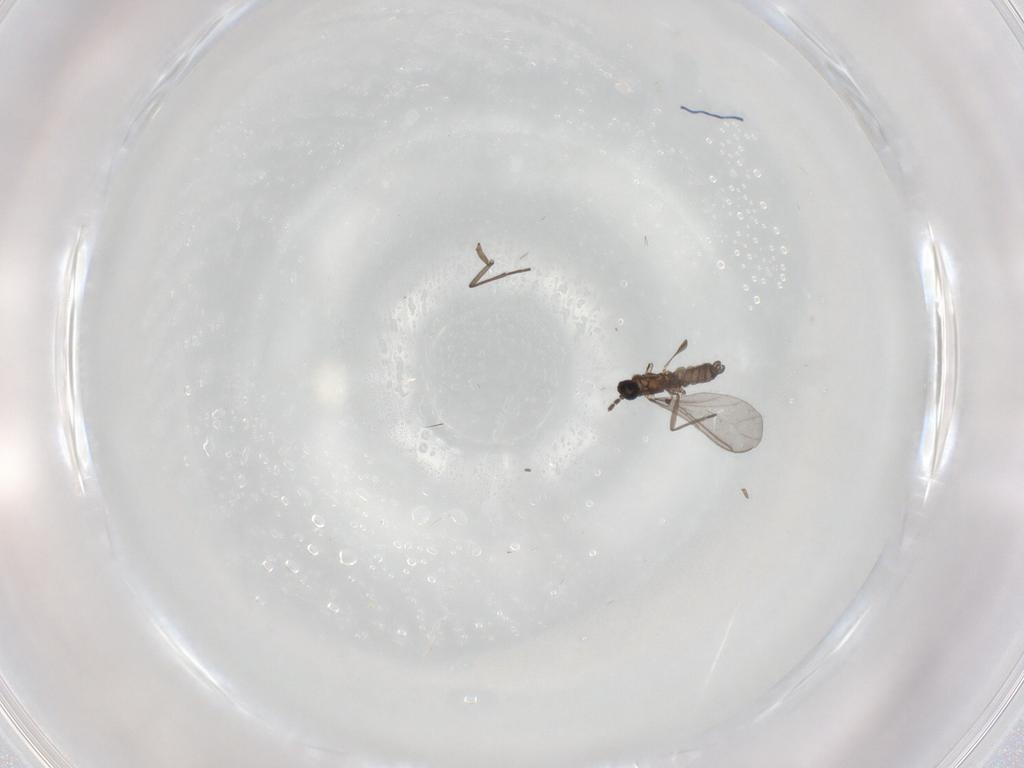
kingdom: Animalia
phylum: Arthropoda
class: Insecta
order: Diptera
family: Sciaridae
